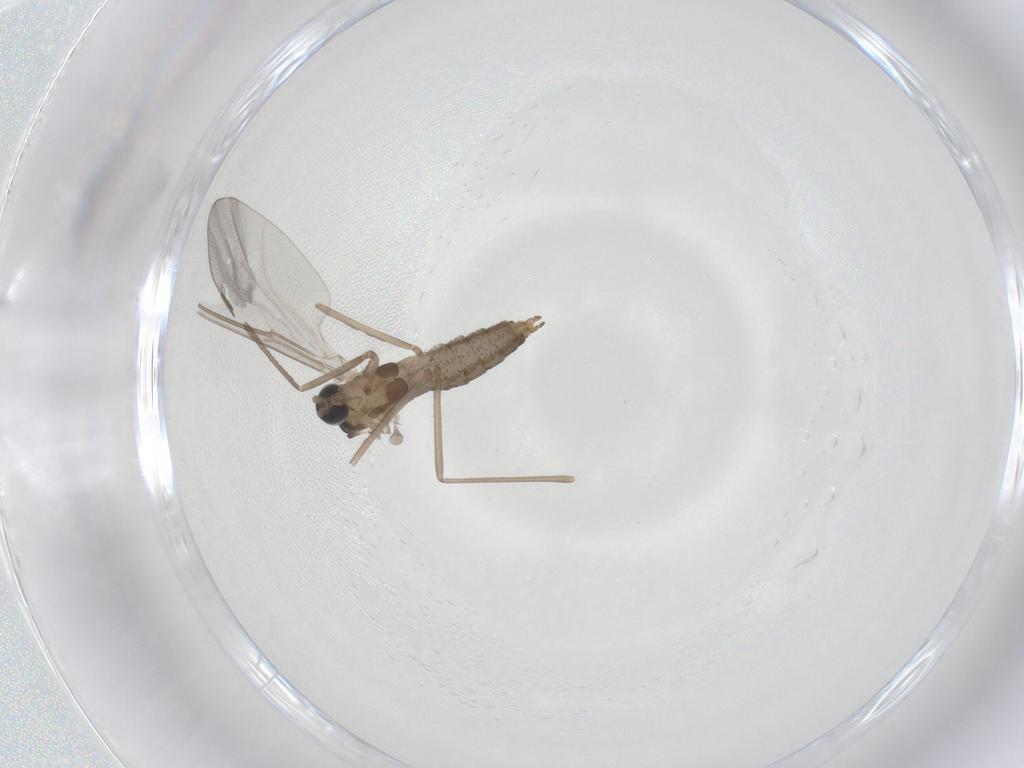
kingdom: Animalia
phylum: Arthropoda
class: Insecta
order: Diptera
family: Cecidomyiidae
